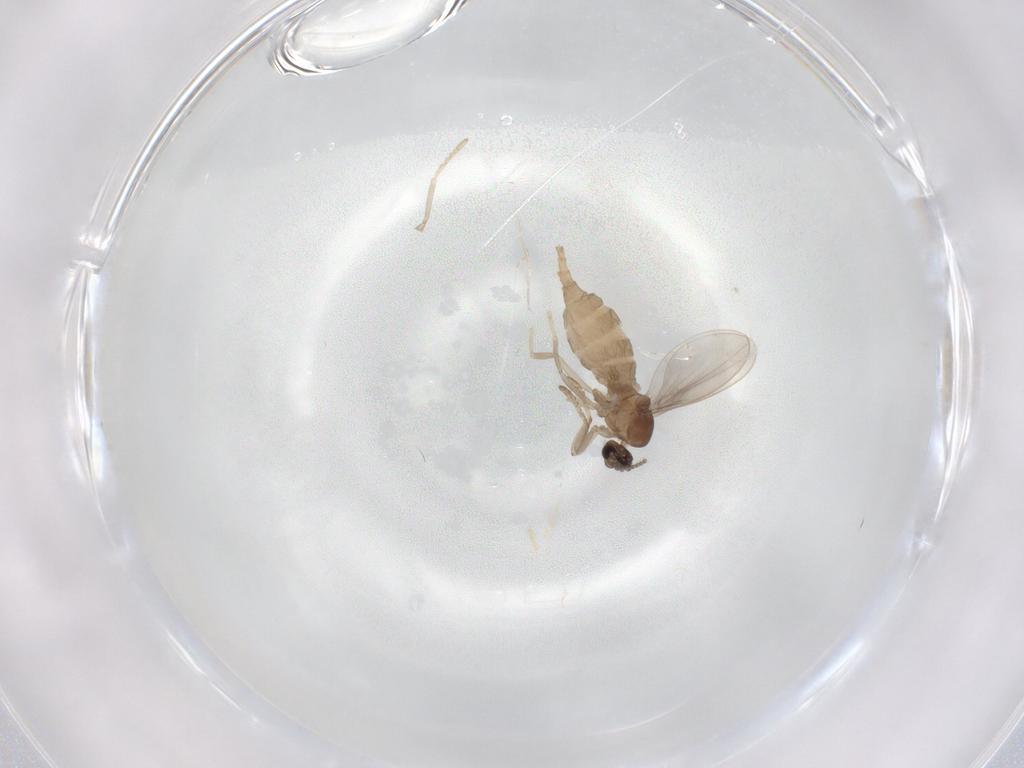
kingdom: Animalia
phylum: Arthropoda
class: Insecta
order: Diptera
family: Cecidomyiidae
